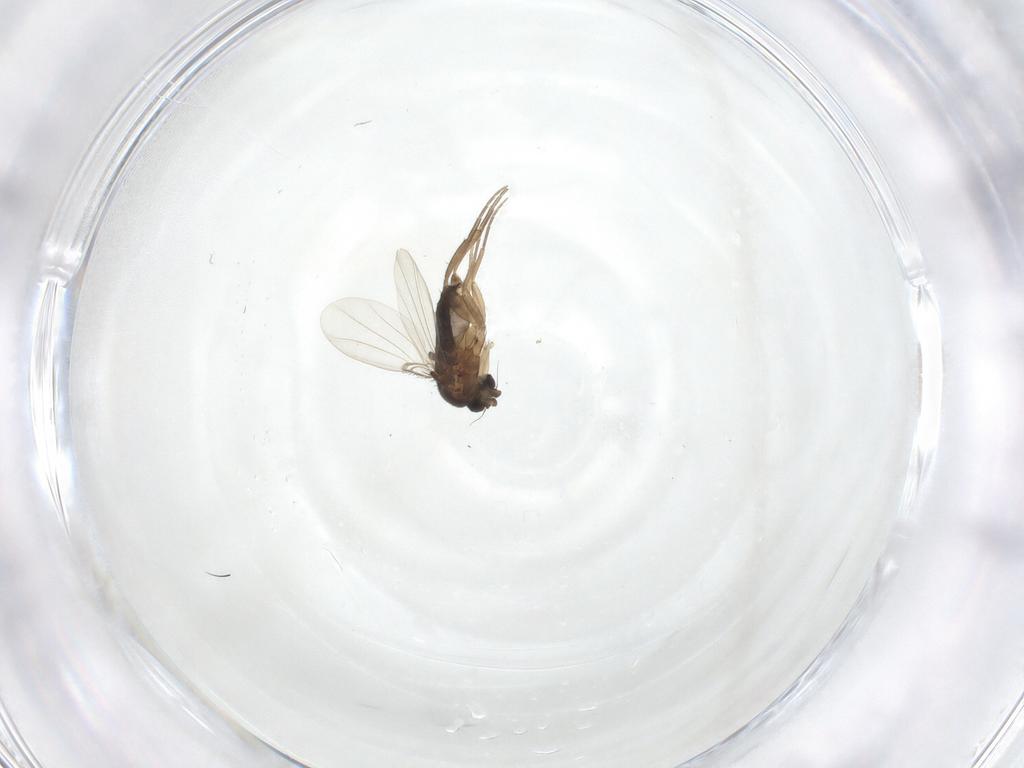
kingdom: Animalia
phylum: Arthropoda
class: Insecta
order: Diptera
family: Phoridae
